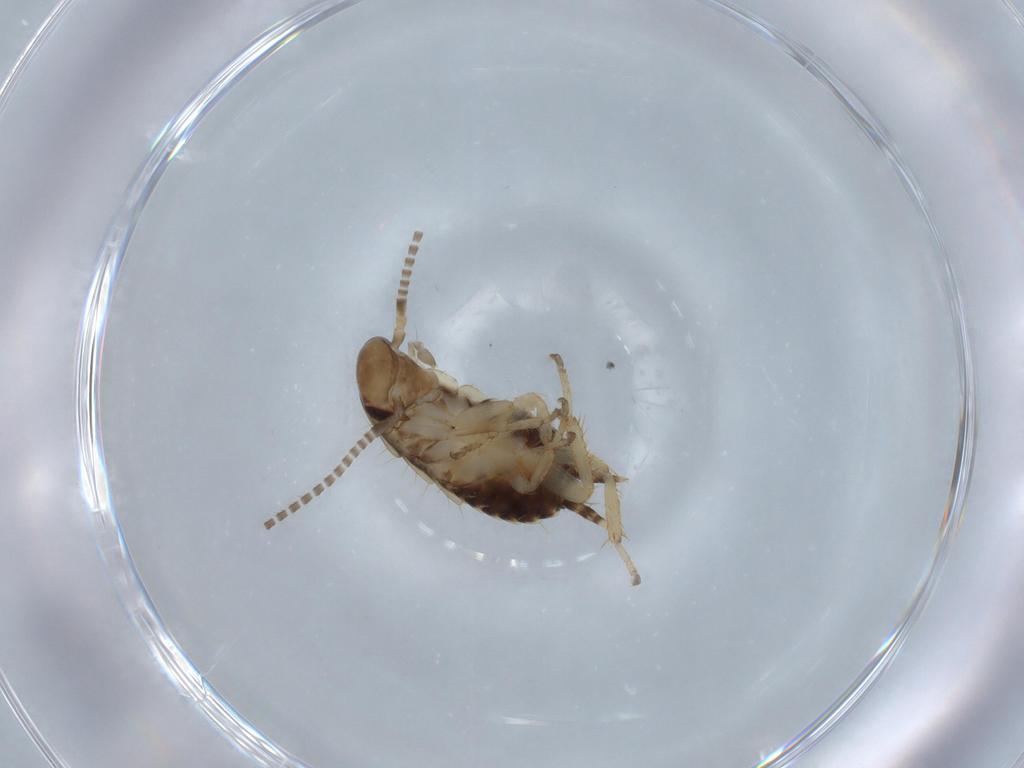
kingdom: Animalia
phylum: Arthropoda
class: Insecta
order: Blattodea
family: Ectobiidae
